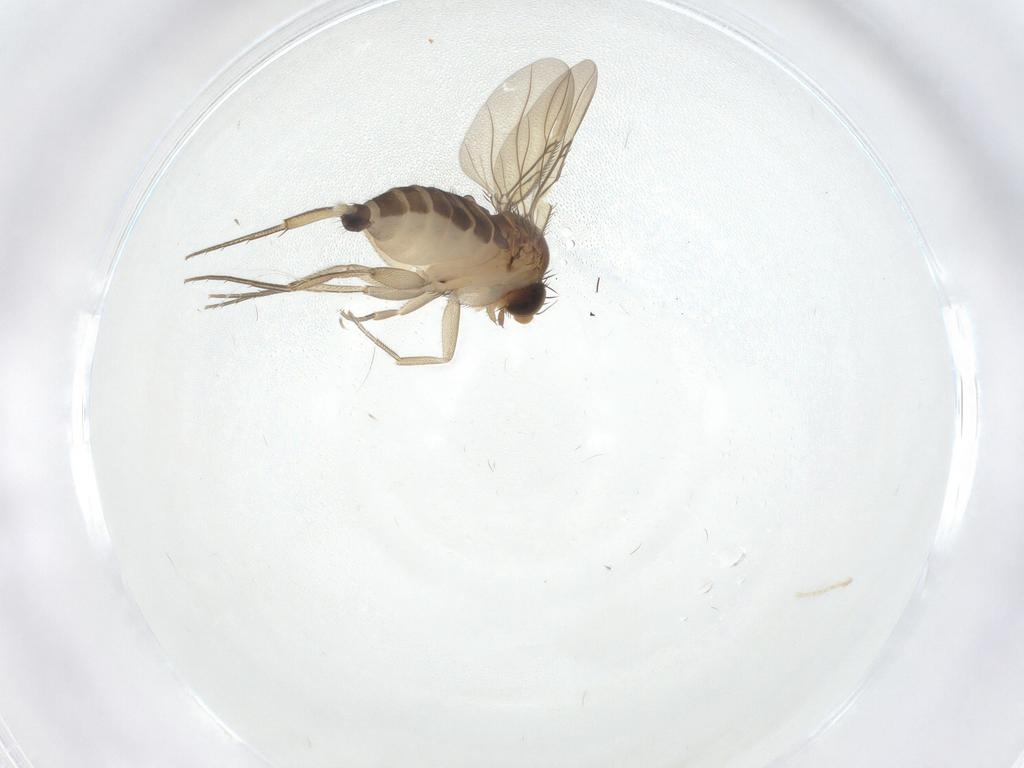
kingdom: Animalia
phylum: Arthropoda
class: Insecta
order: Diptera
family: Phoridae
